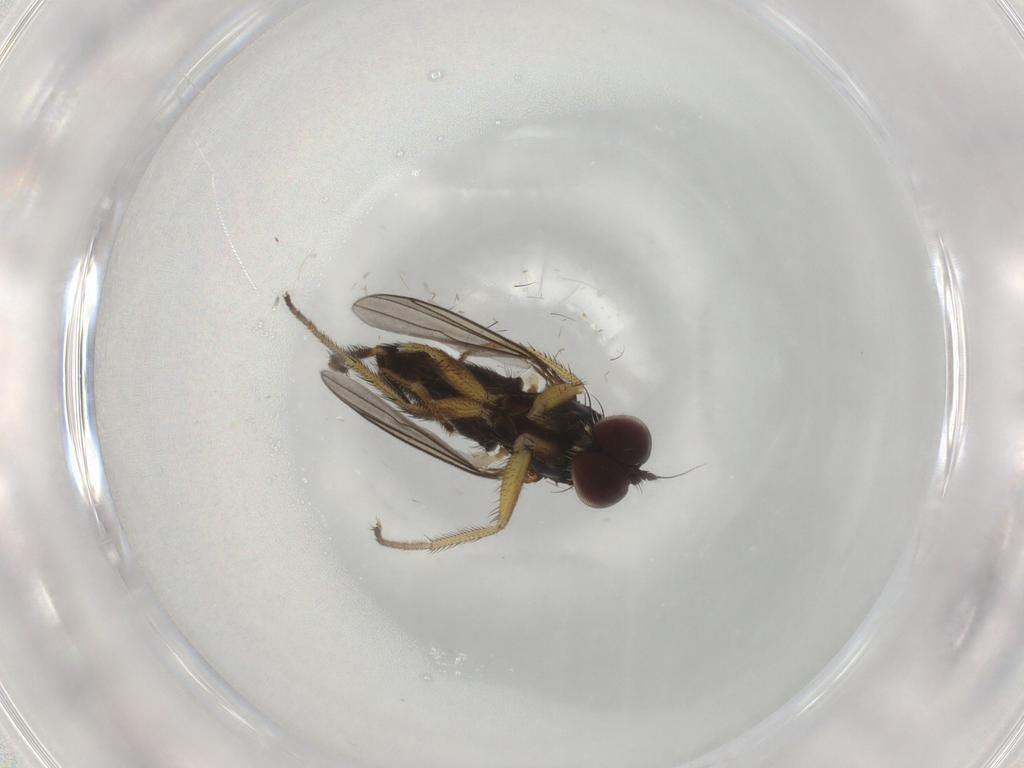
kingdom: Animalia
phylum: Arthropoda
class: Insecta
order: Diptera
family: Dolichopodidae
